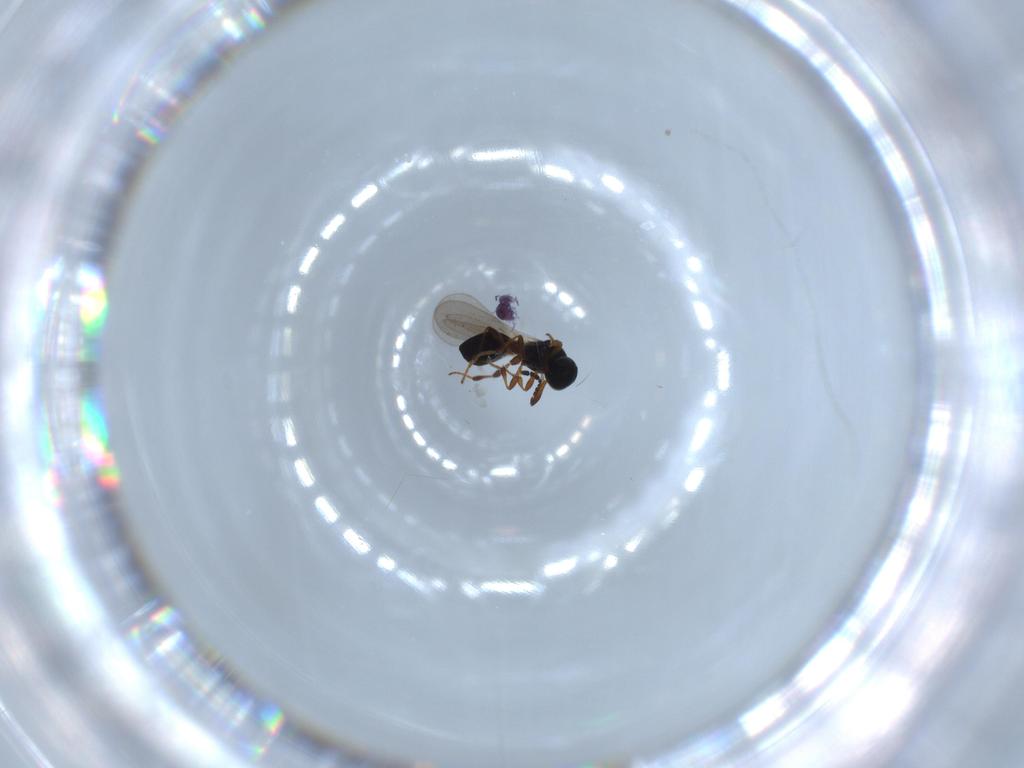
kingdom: Animalia
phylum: Arthropoda
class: Collembola
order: Symphypleona
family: Sminthurididae
